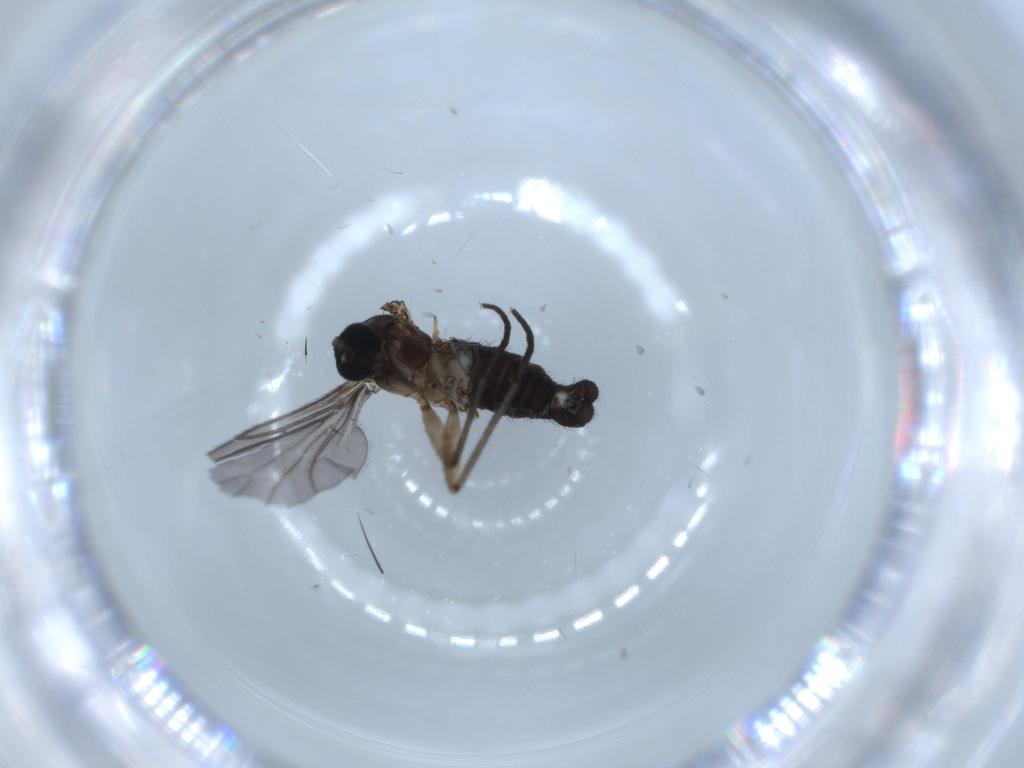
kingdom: Animalia
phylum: Arthropoda
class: Insecta
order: Diptera
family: Sciaridae
